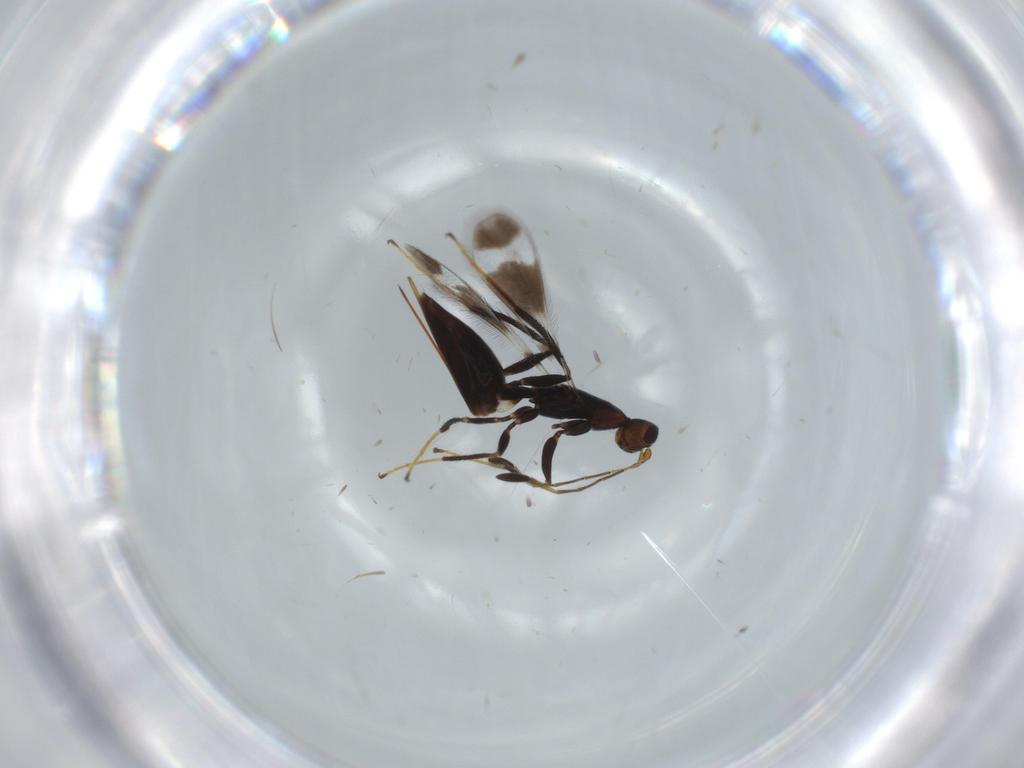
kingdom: Animalia
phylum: Arthropoda
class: Insecta
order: Hymenoptera
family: Mymaridae
